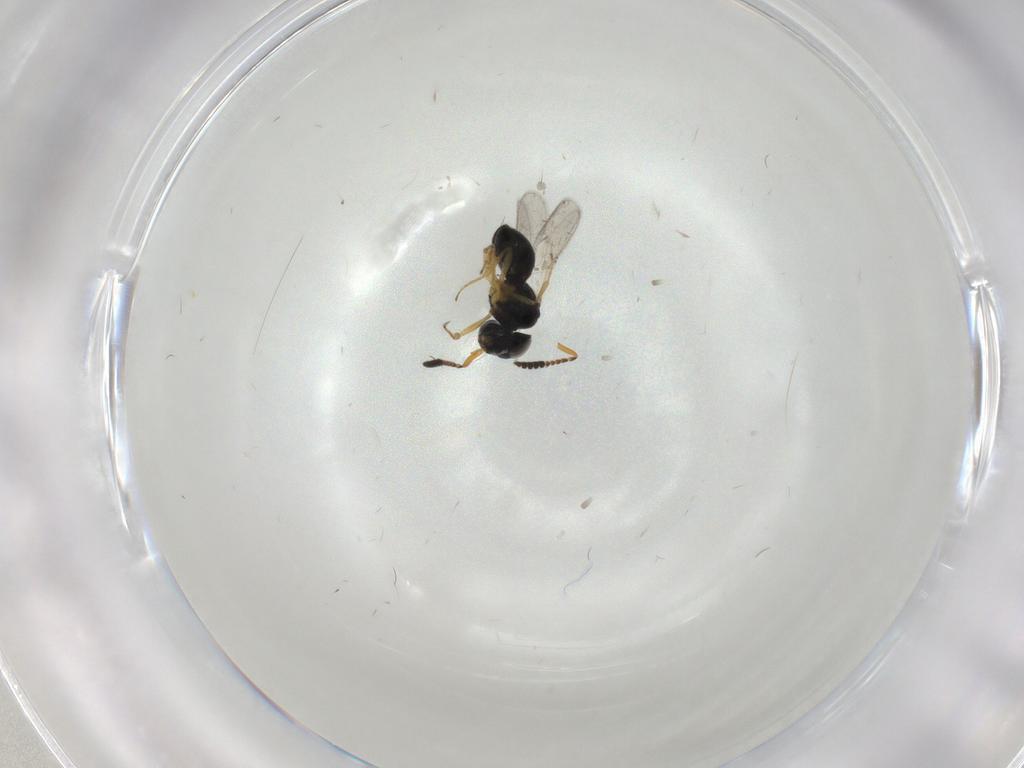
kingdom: Animalia
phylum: Arthropoda
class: Insecta
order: Hymenoptera
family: Scelionidae
